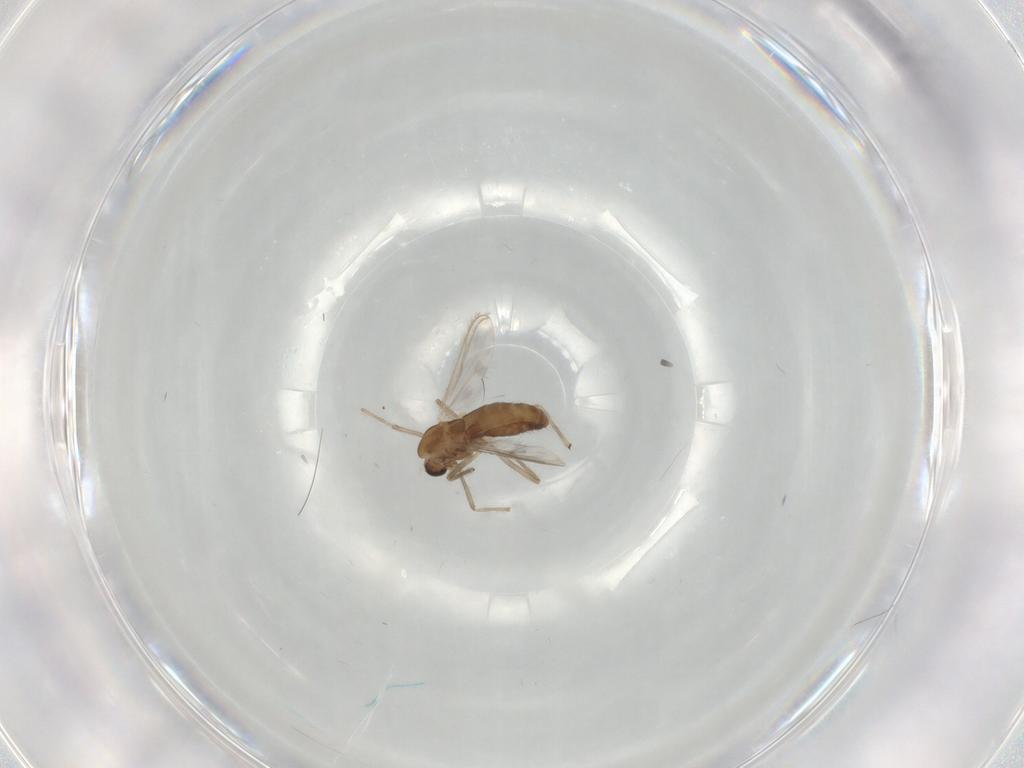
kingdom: Animalia
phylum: Arthropoda
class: Insecta
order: Diptera
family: Chironomidae
